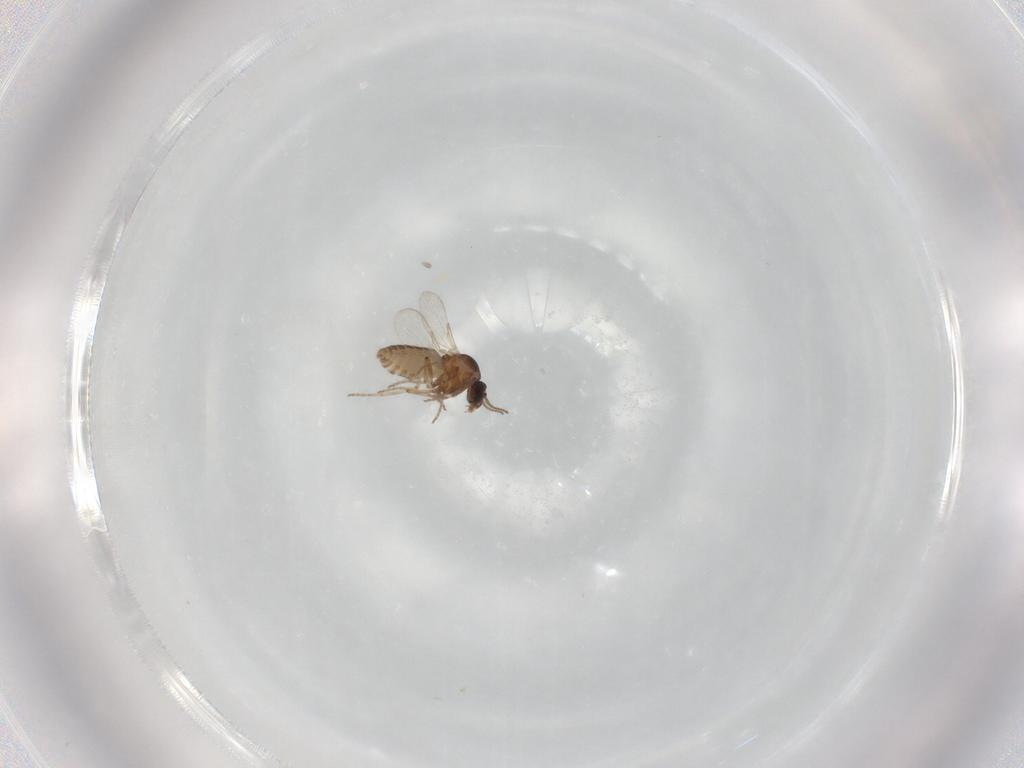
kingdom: Animalia
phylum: Arthropoda
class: Insecta
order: Diptera
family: Ceratopogonidae
